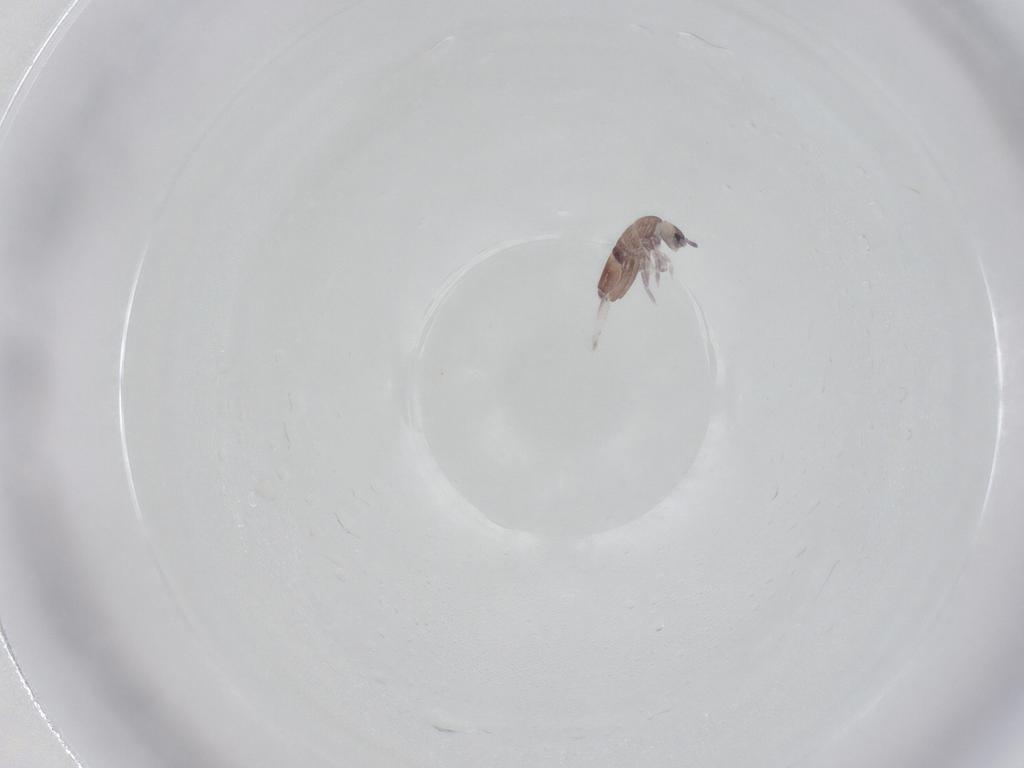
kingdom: Animalia
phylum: Arthropoda
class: Collembola
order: Entomobryomorpha
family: Entomobryidae
